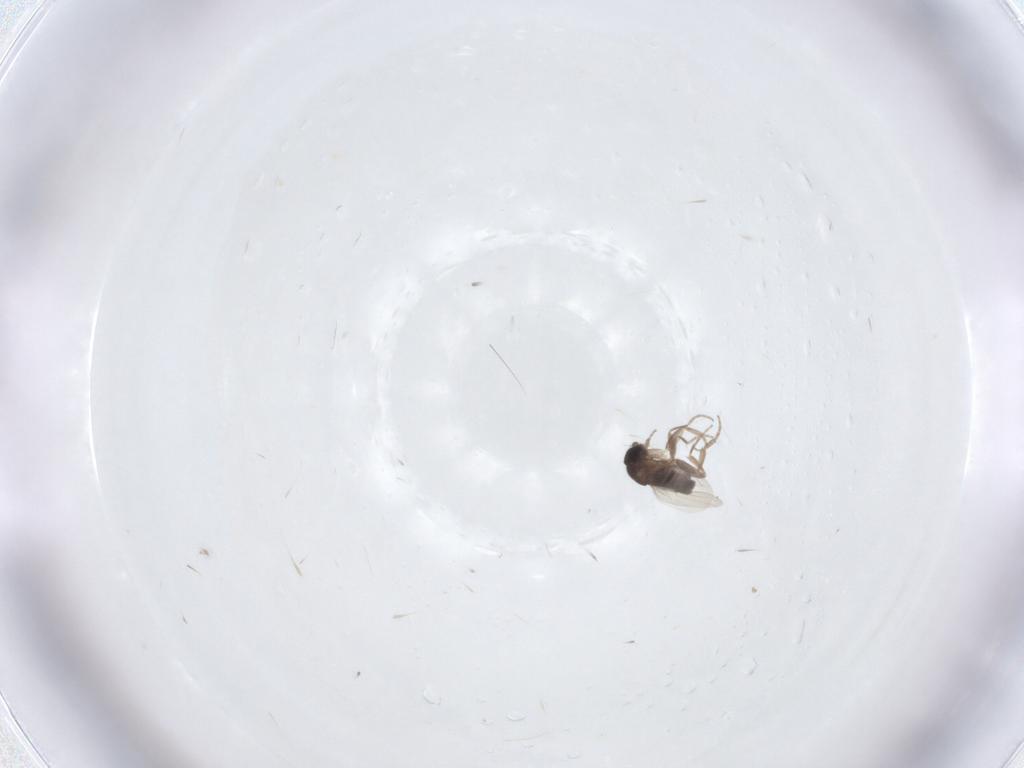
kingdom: Animalia
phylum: Arthropoda
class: Insecta
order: Diptera
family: Phoridae
